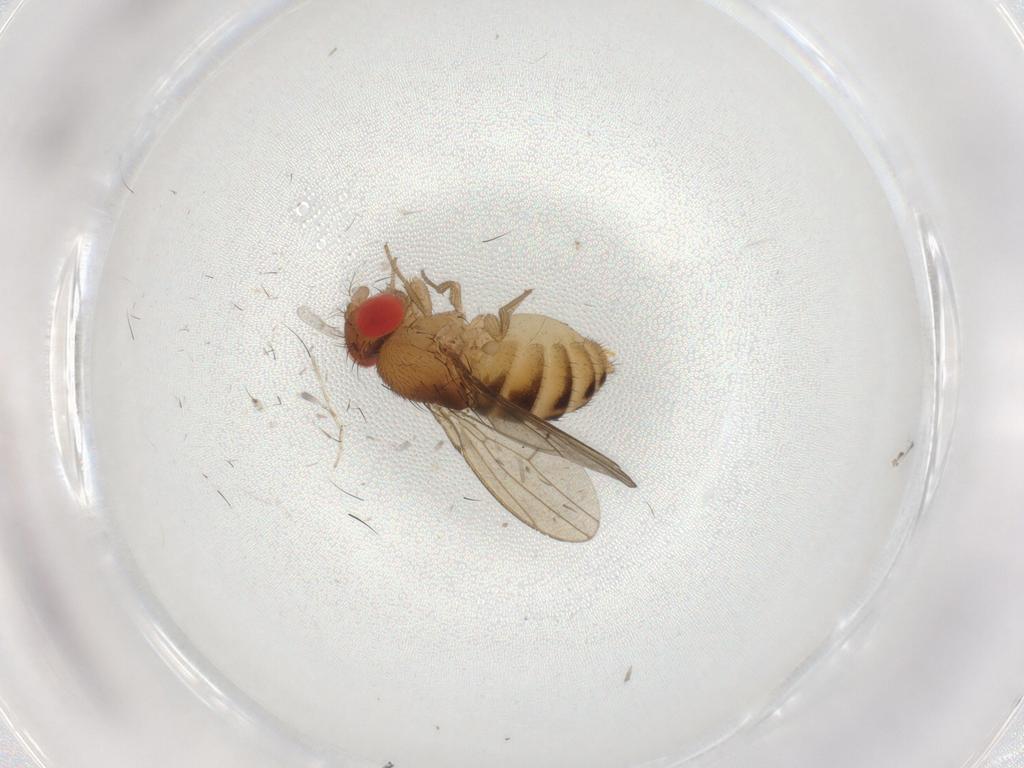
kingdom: Animalia
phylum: Arthropoda
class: Insecta
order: Diptera
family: Drosophilidae
